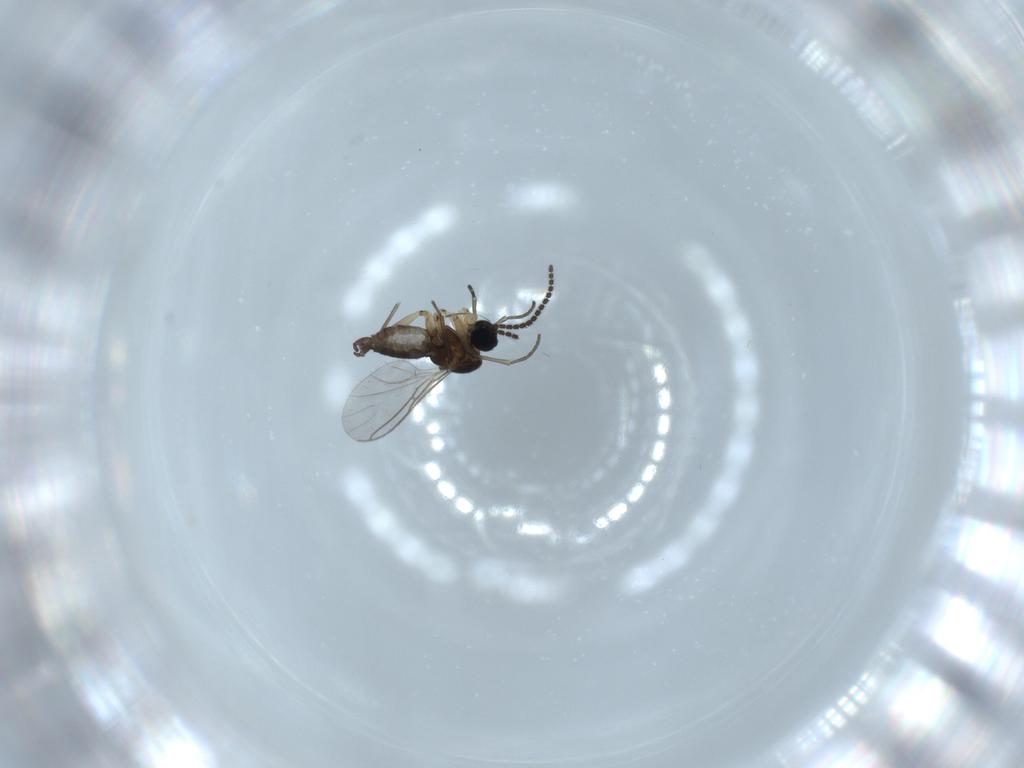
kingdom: Animalia
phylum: Arthropoda
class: Insecta
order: Diptera
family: Sciaridae
